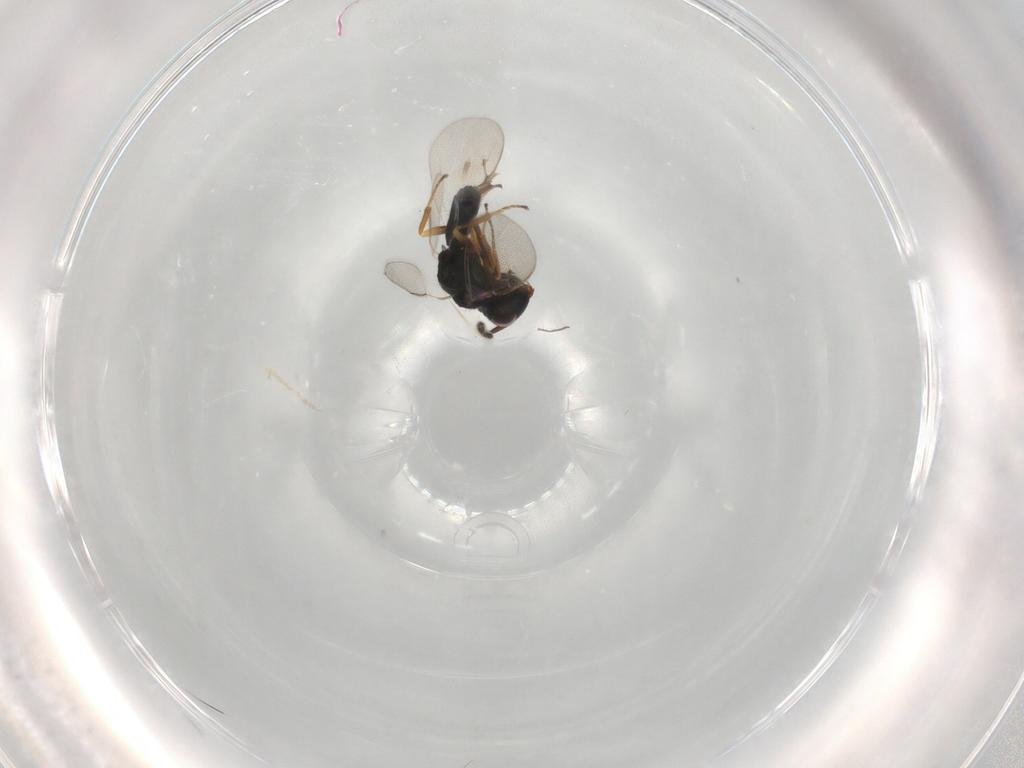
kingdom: Animalia
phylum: Arthropoda
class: Insecta
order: Hymenoptera
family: Pteromalidae
